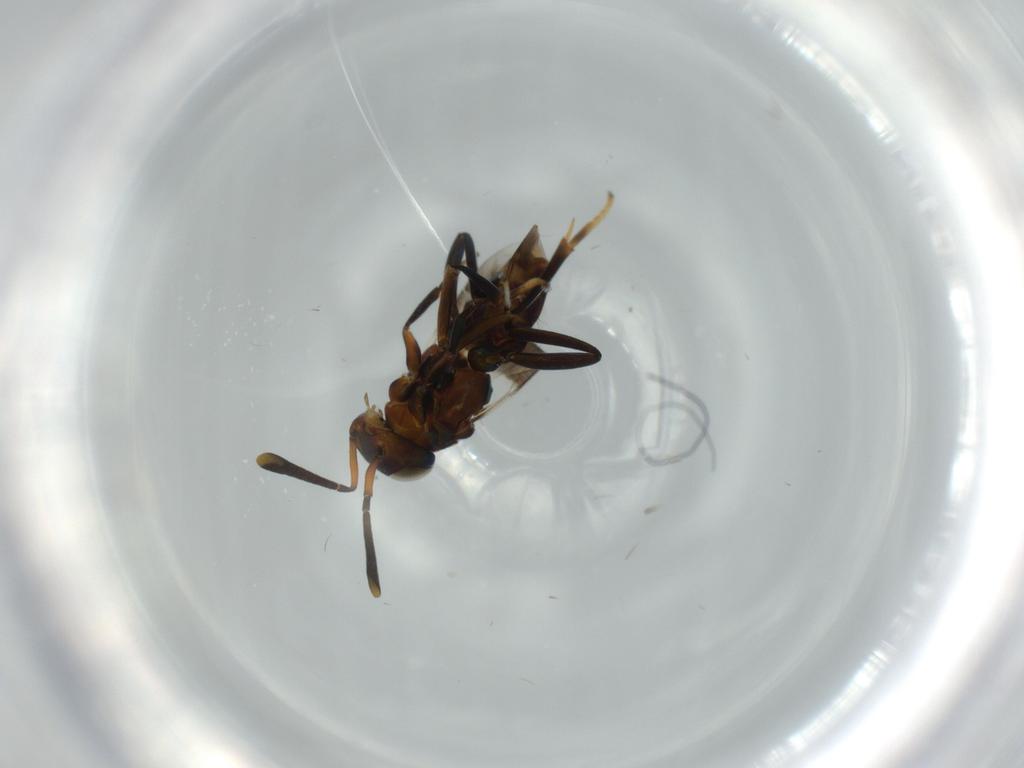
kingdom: Animalia
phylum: Arthropoda
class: Insecta
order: Hymenoptera
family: Encyrtidae
